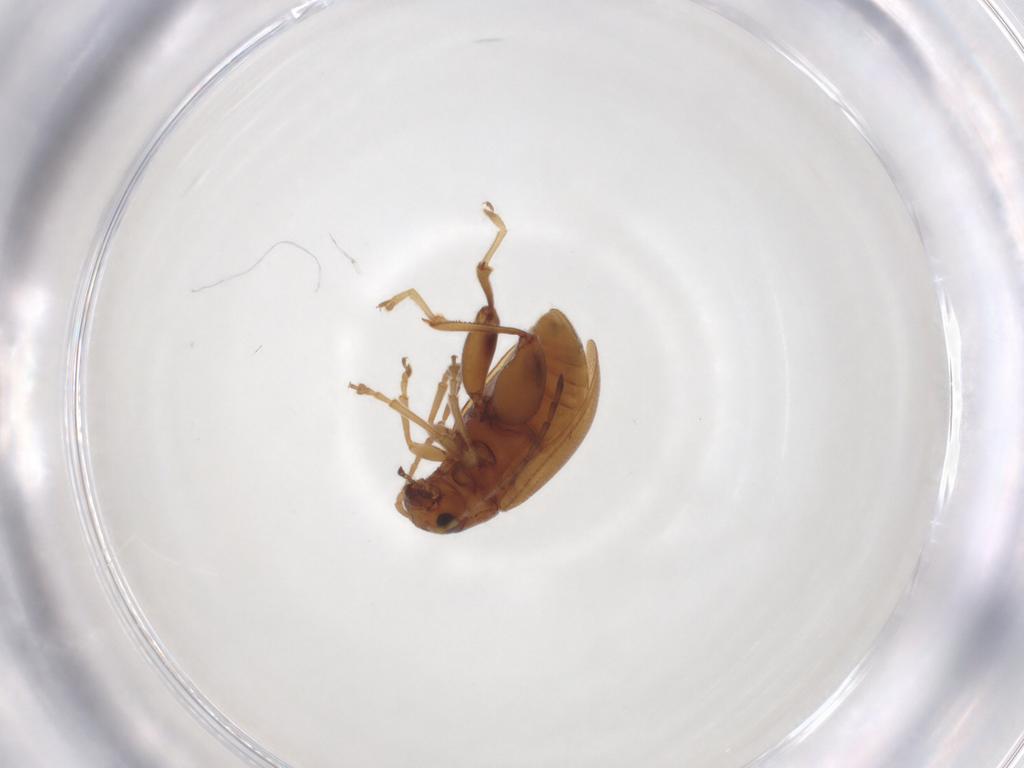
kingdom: Animalia
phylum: Arthropoda
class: Insecta
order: Coleoptera
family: Chrysomelidae
